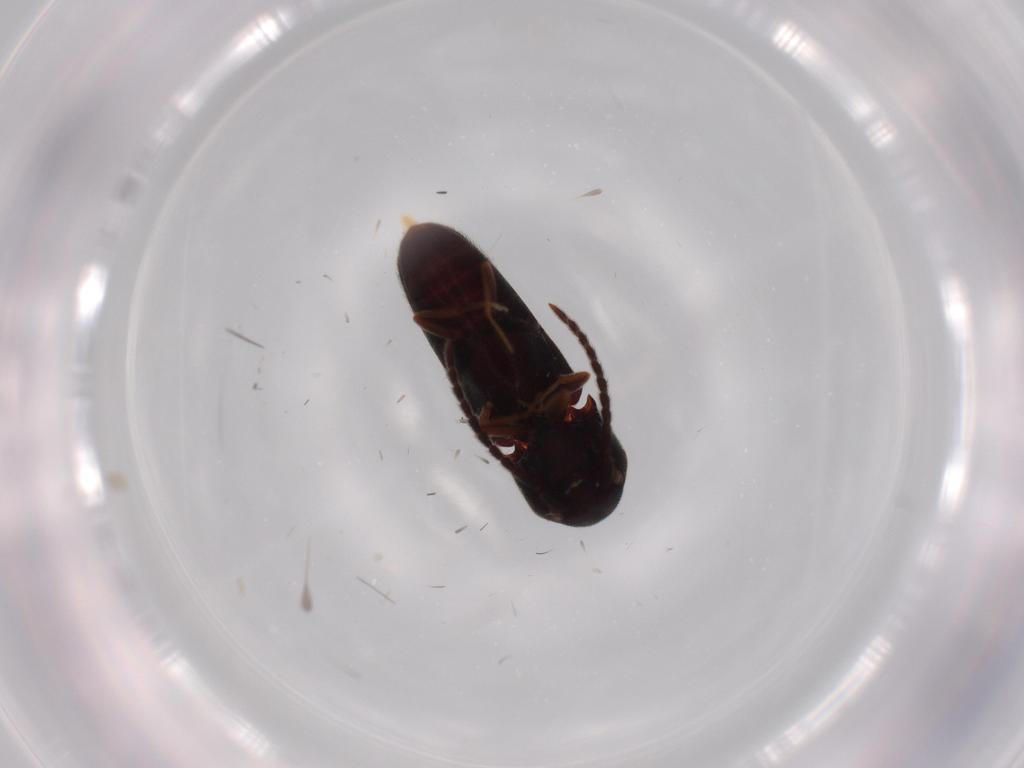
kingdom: Animalia
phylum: Arthropoda
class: Insecta
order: Coleoptera
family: Eucnemidae
